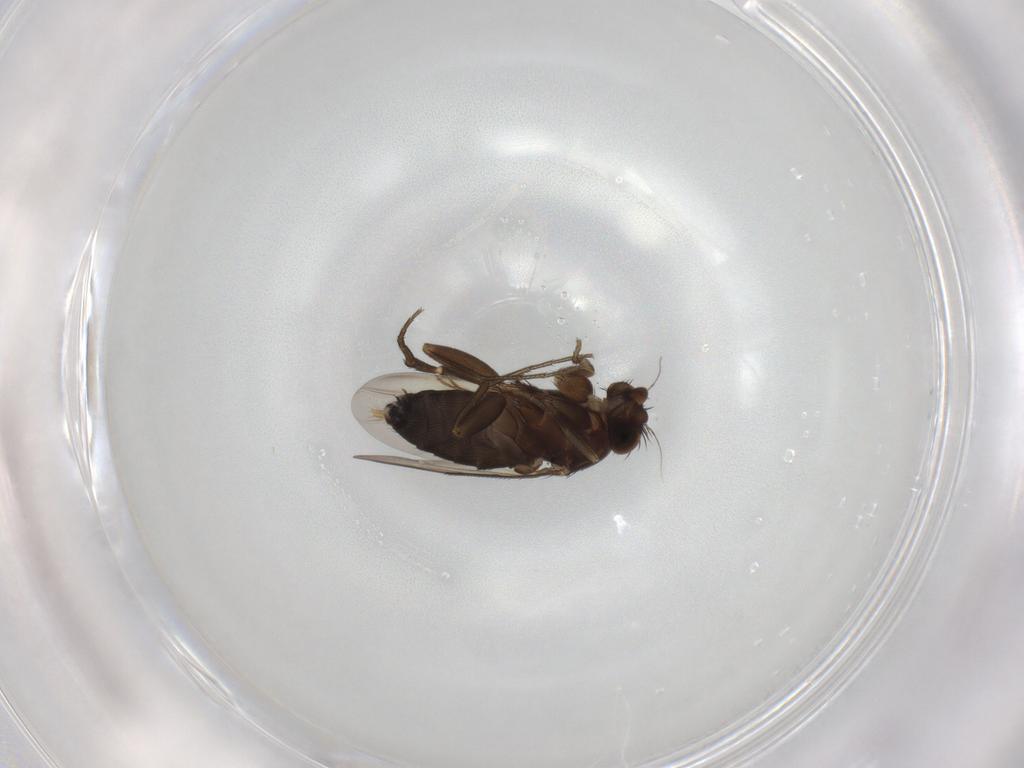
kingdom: Animalia
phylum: Arthropoda
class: Insecta
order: Diptera
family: Phoridae
